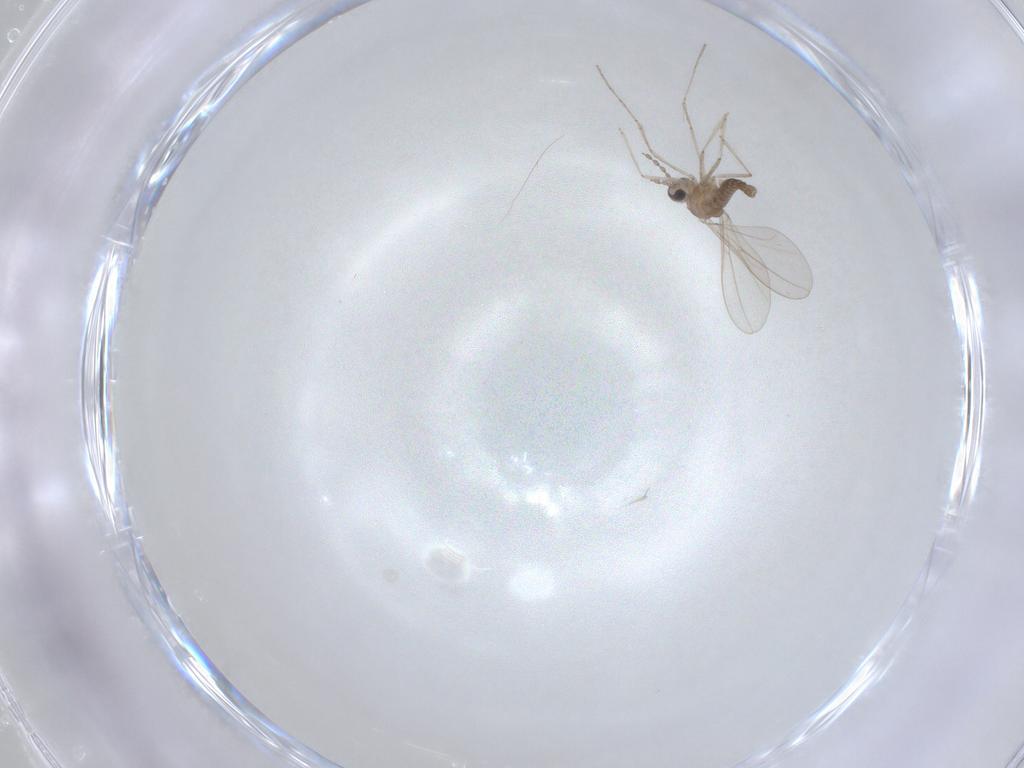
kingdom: Animalia
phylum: Arthropoda
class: Insecta
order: Diptera
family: Cecidomyiidae
